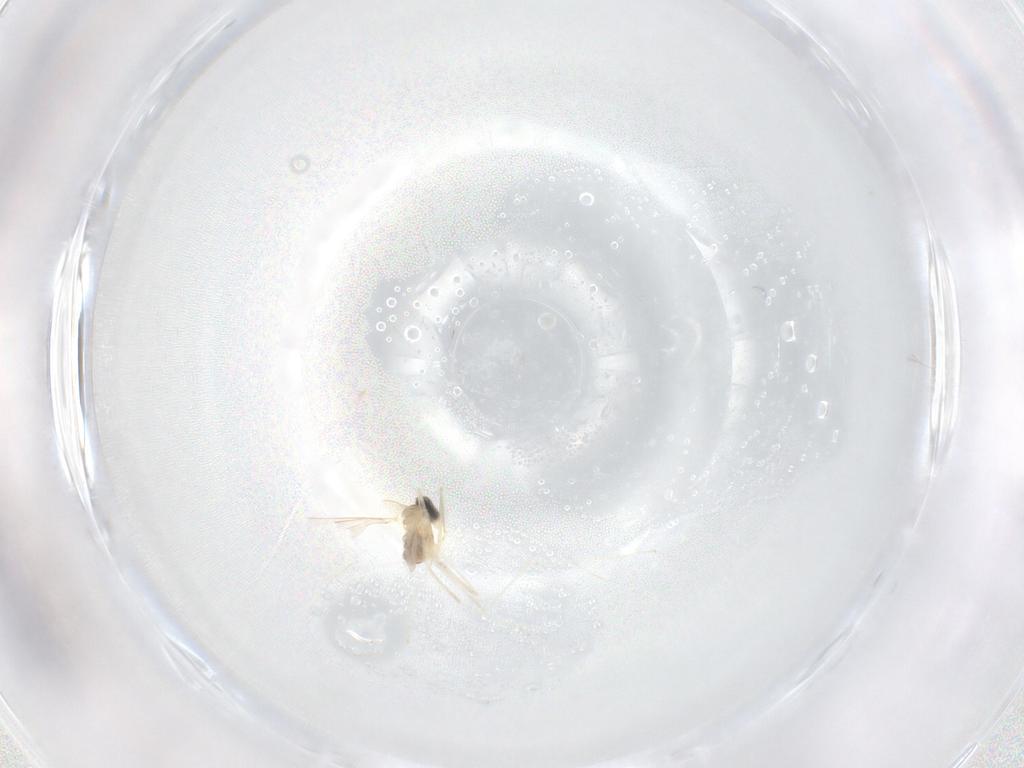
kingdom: Animalia
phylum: Arthropoda
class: Insecta
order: Diptera
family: Cecidomyiidae
